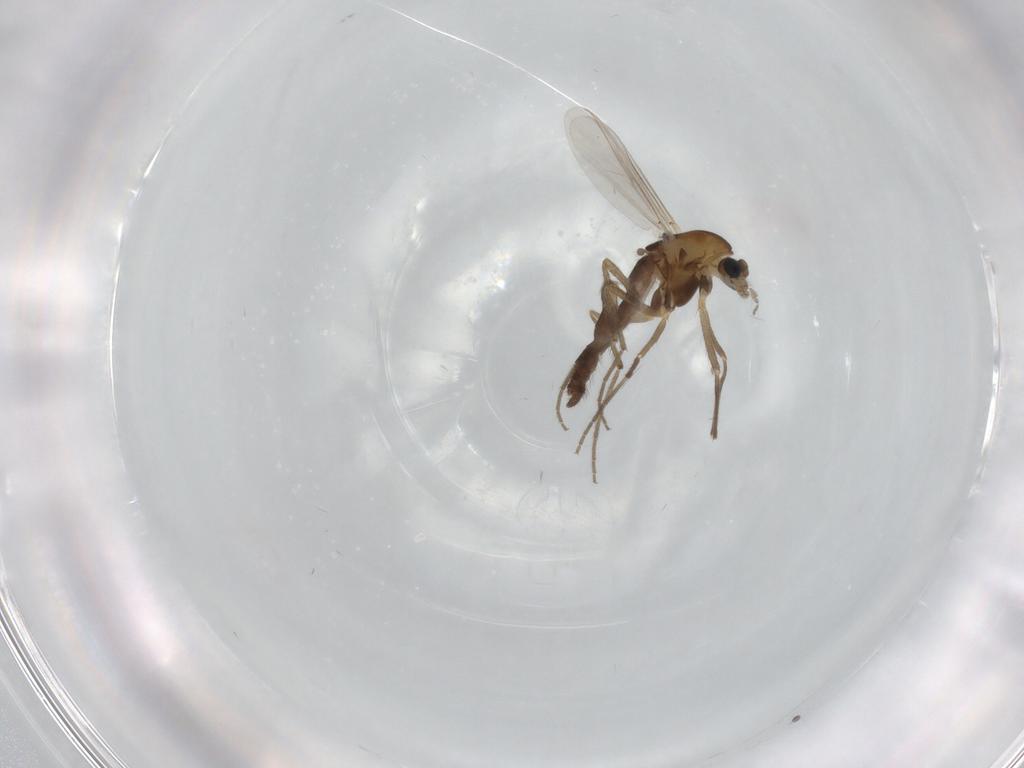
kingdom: Animalia
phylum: Arthropoda
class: Insecta
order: Diptera
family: Chironomidae
